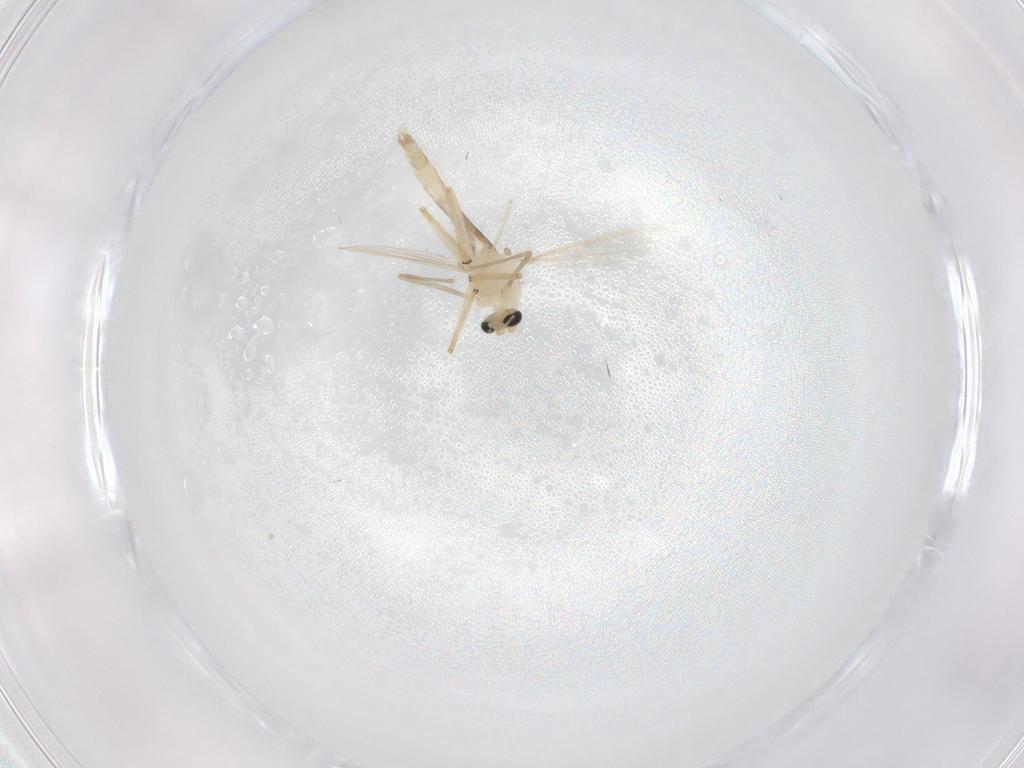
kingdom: Animalia
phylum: Arthropoda
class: Insecta
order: Diptera
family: Chironomidae
